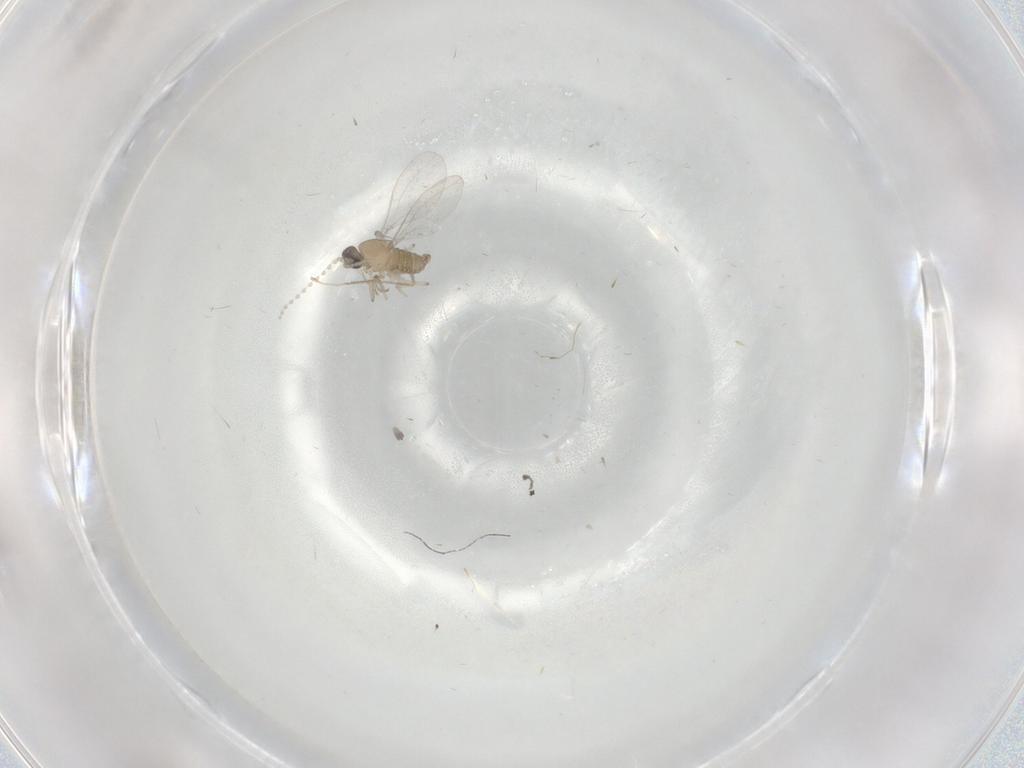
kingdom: Animalia
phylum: Arthropoda
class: Insecta
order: Diptera
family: Cecidomyiidae
